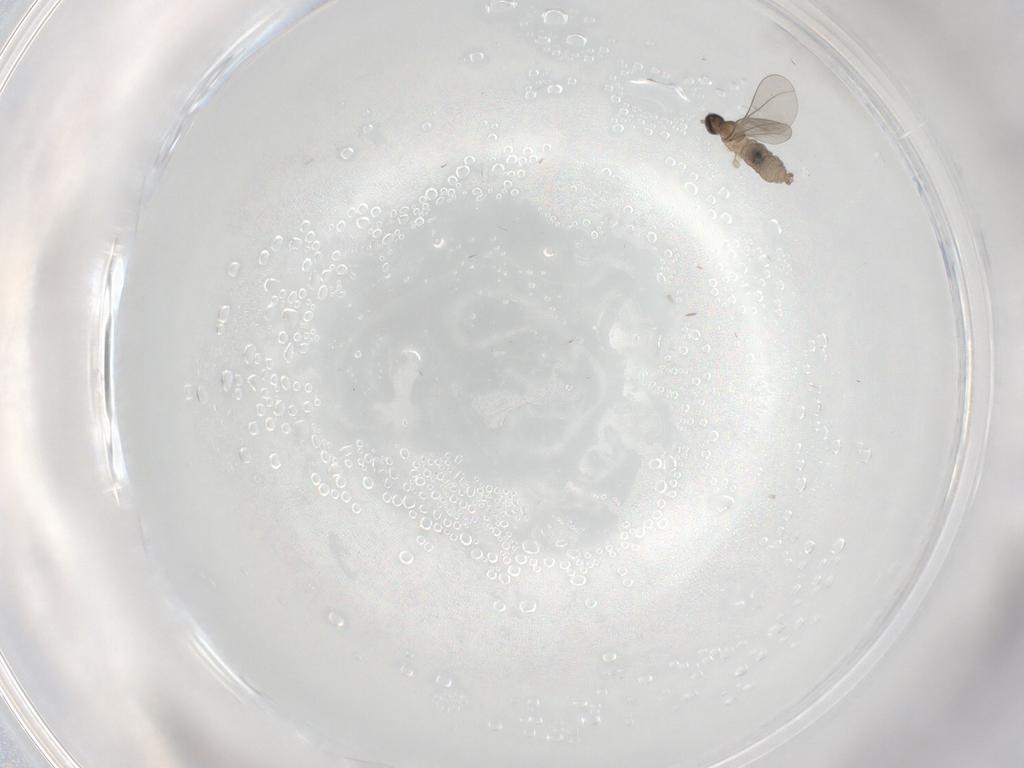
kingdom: Animalia
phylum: Arthropoda
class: Insecta
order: Diptera
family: Cecidomyiidae
